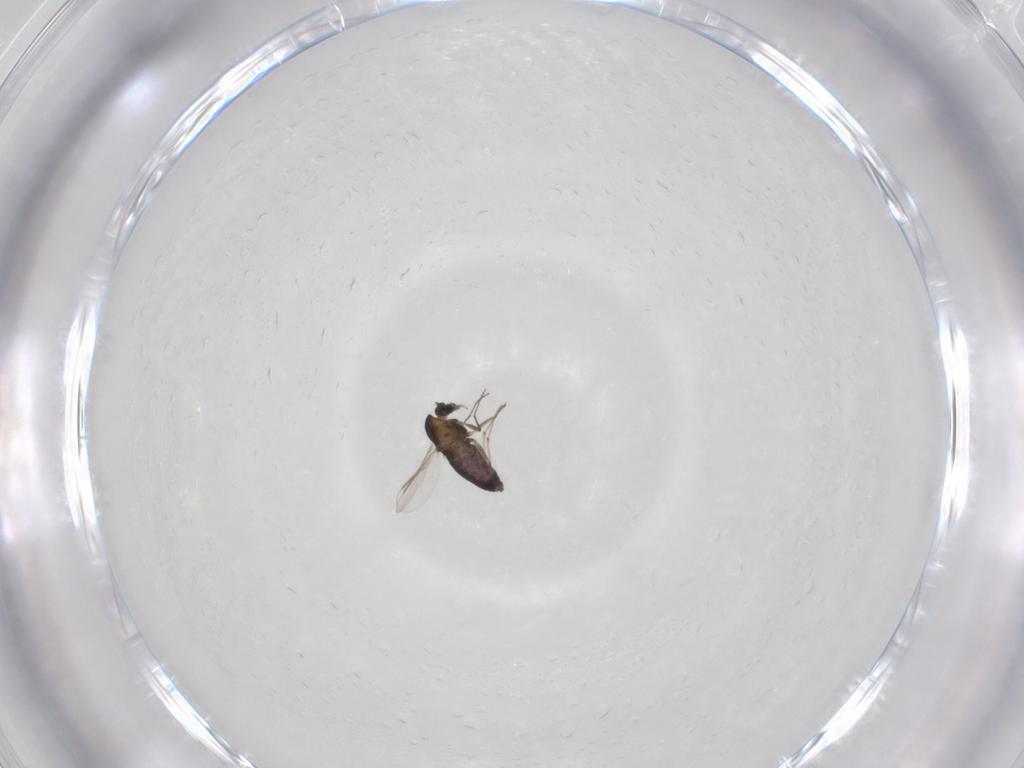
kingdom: Animalia
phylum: Arthropoda
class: Insecta
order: Diptera
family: Chironomidae
